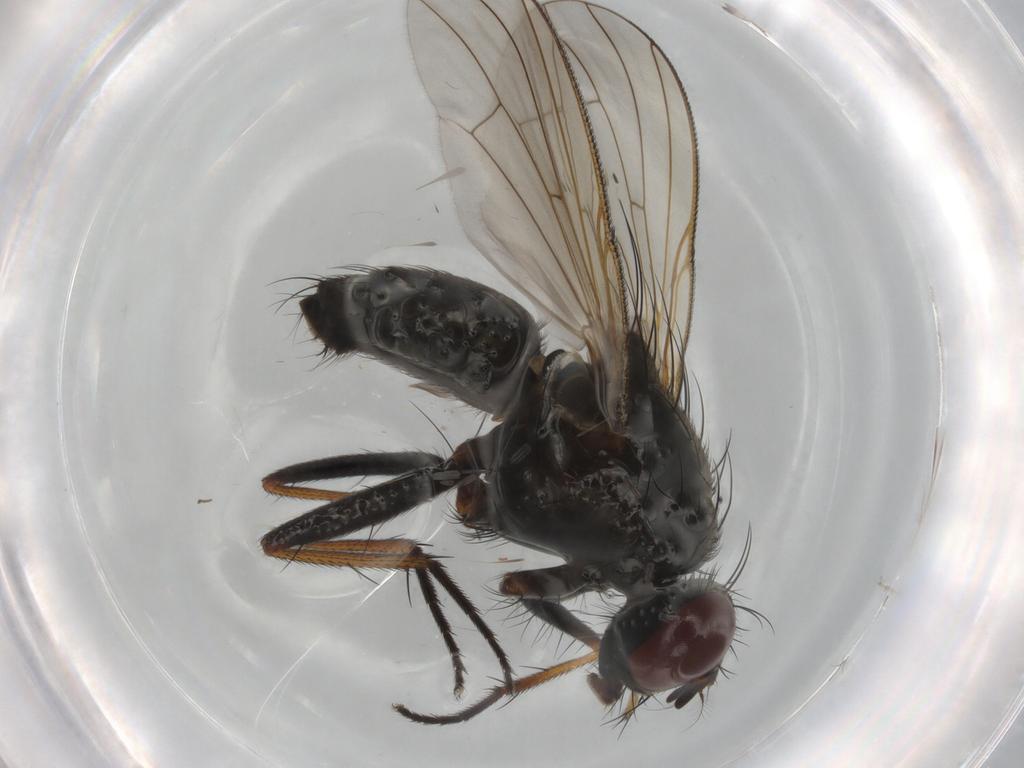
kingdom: Animalia
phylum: Arthropoda
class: Insecta
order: Diptera
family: Muscidae
